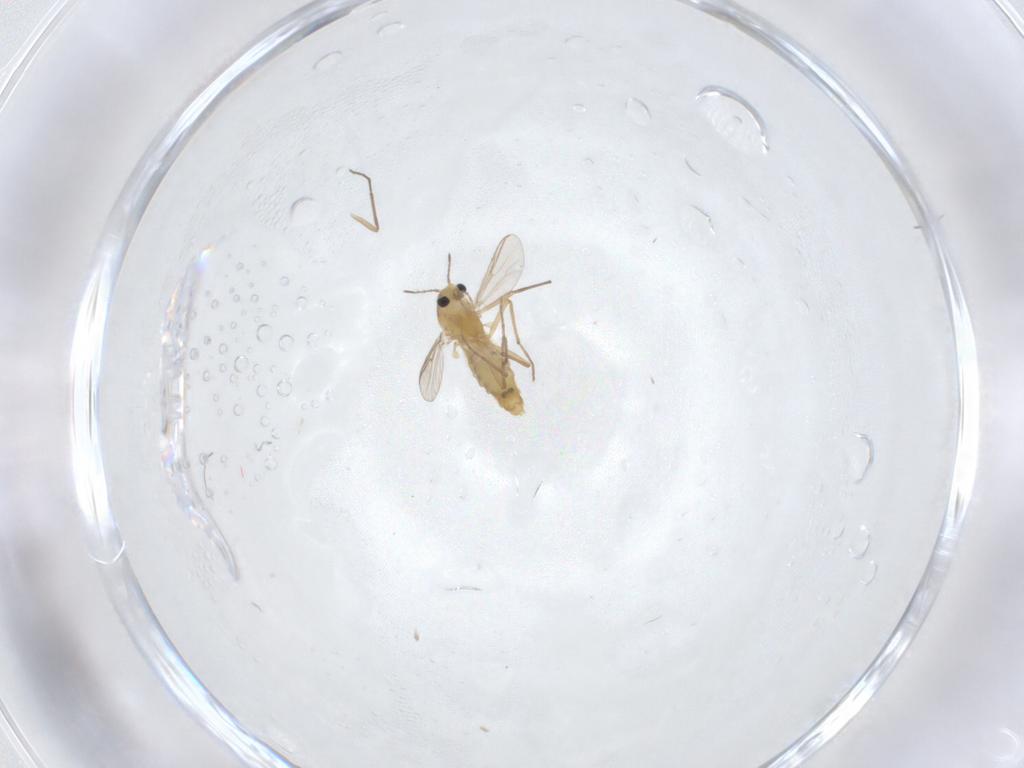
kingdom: Animalia
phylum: Arthropoda
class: Insecta
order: Diptera
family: Chironomidae
